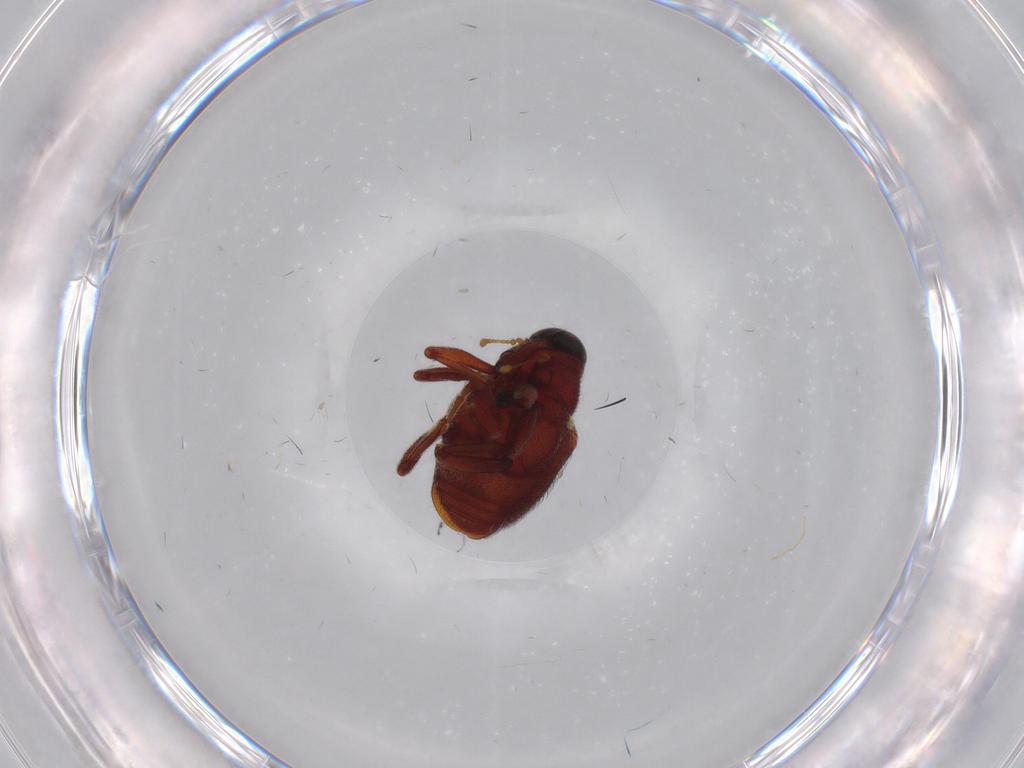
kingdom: Animalia
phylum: Arthropoda
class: Insecta
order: Coleoptera
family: Curculionidae
